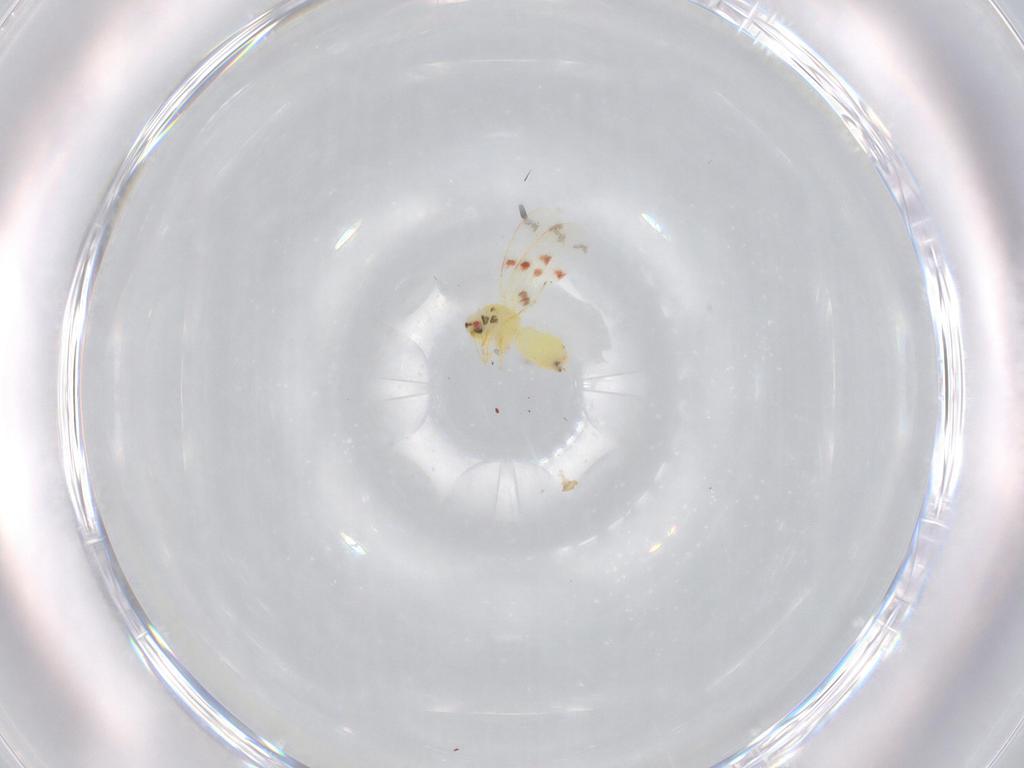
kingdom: Animalia
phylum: Arthropoda
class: Insecta
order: Hemiptera
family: Aleyrodidae
